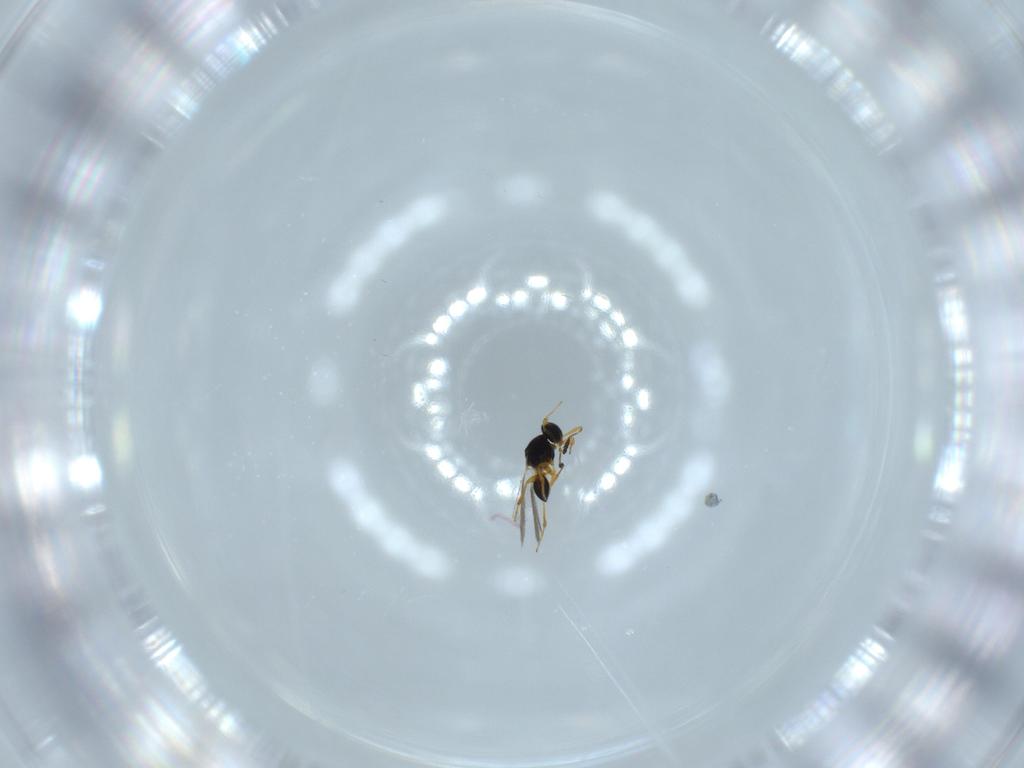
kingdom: Animalia
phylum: Arthropoda
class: Insecta
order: Hymenoptera
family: Platygastridae
